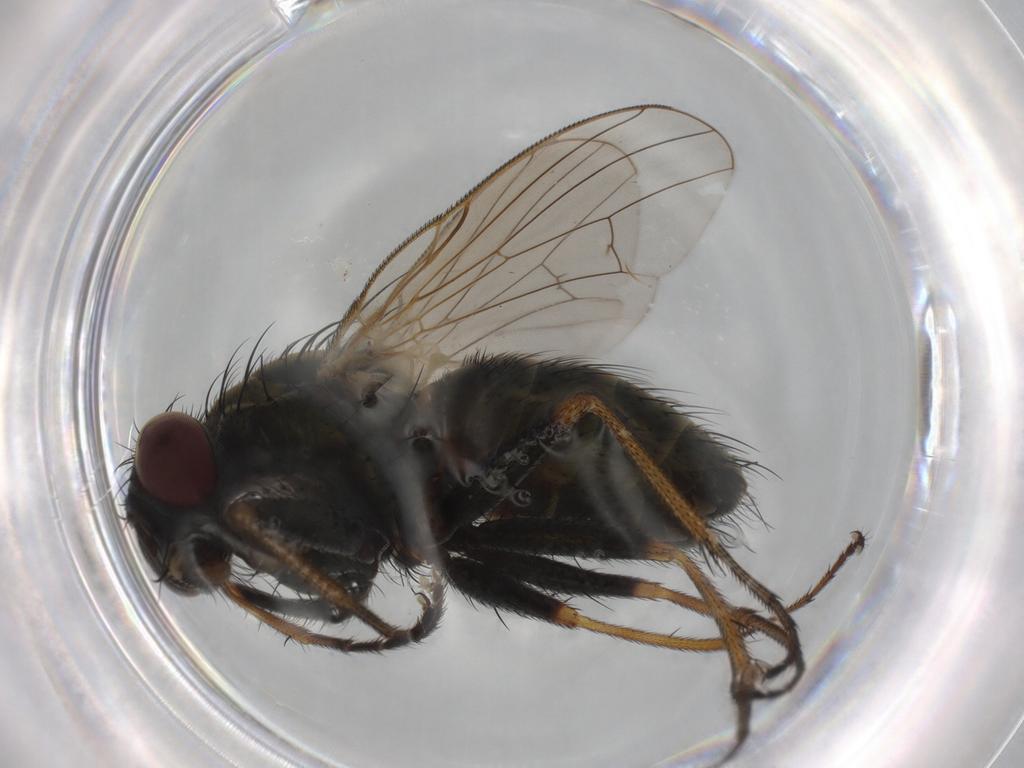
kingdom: Animalia
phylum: Arthropoda
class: Insecta
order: Diptera
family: Muscidae
